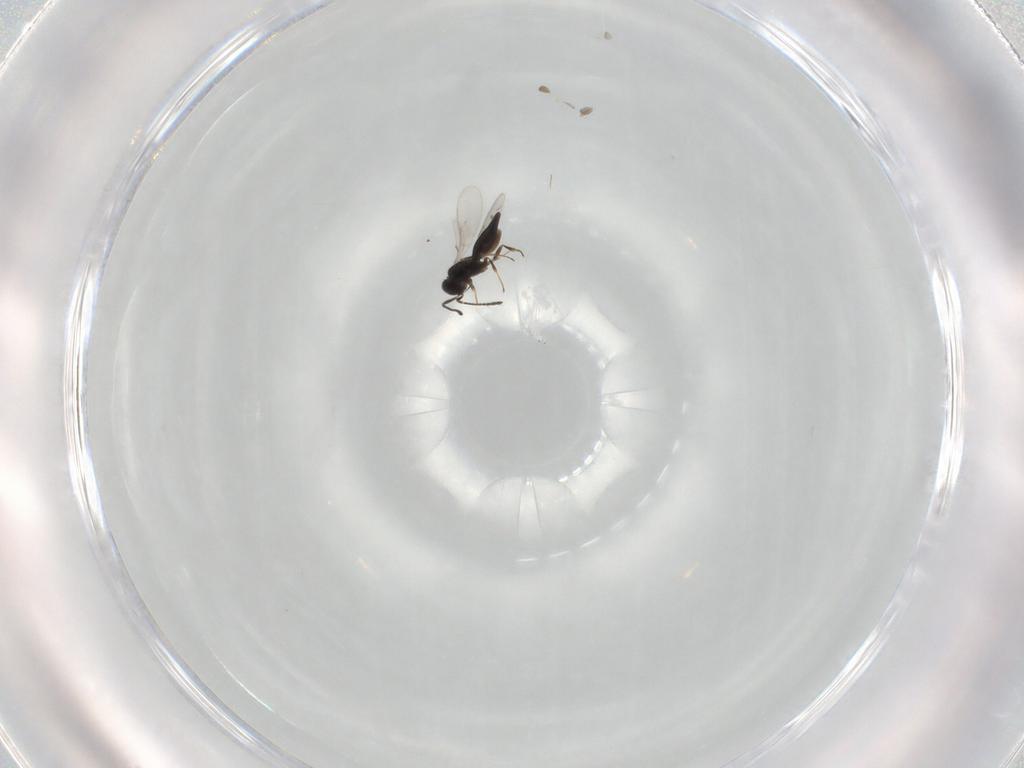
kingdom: Animalia
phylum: Arthropoda
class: Insecta
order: Hymenoptera
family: Scelionidae
